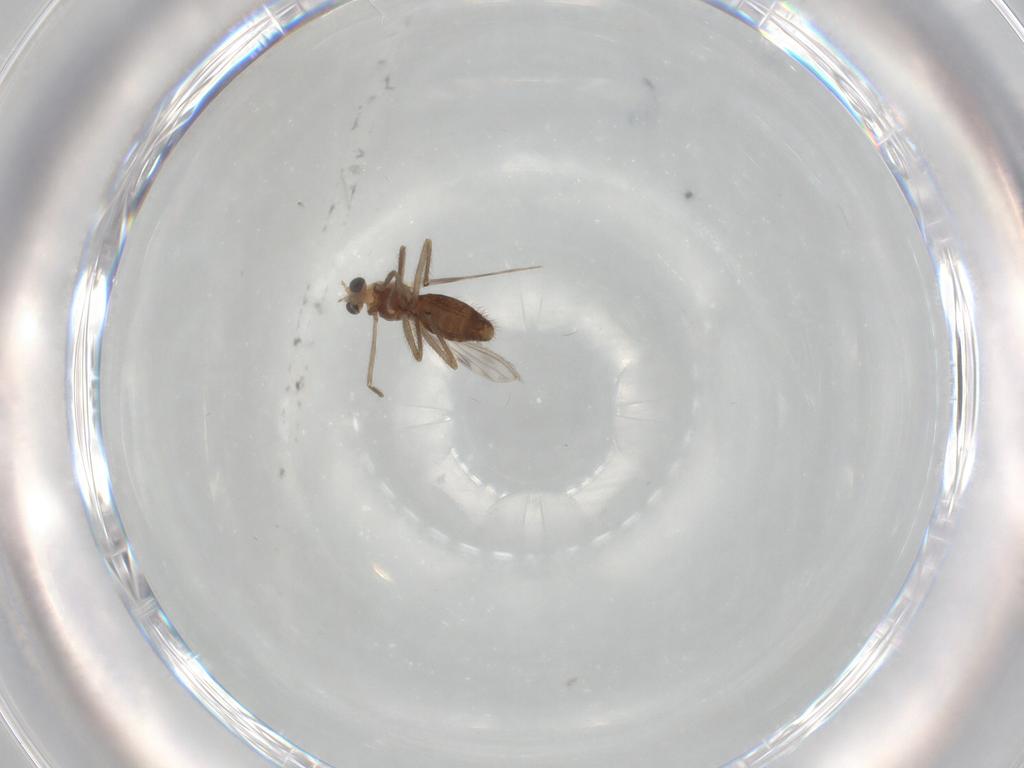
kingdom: Animalia
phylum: Arthropoda
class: Insecta
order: Diptera
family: Chironomidae
